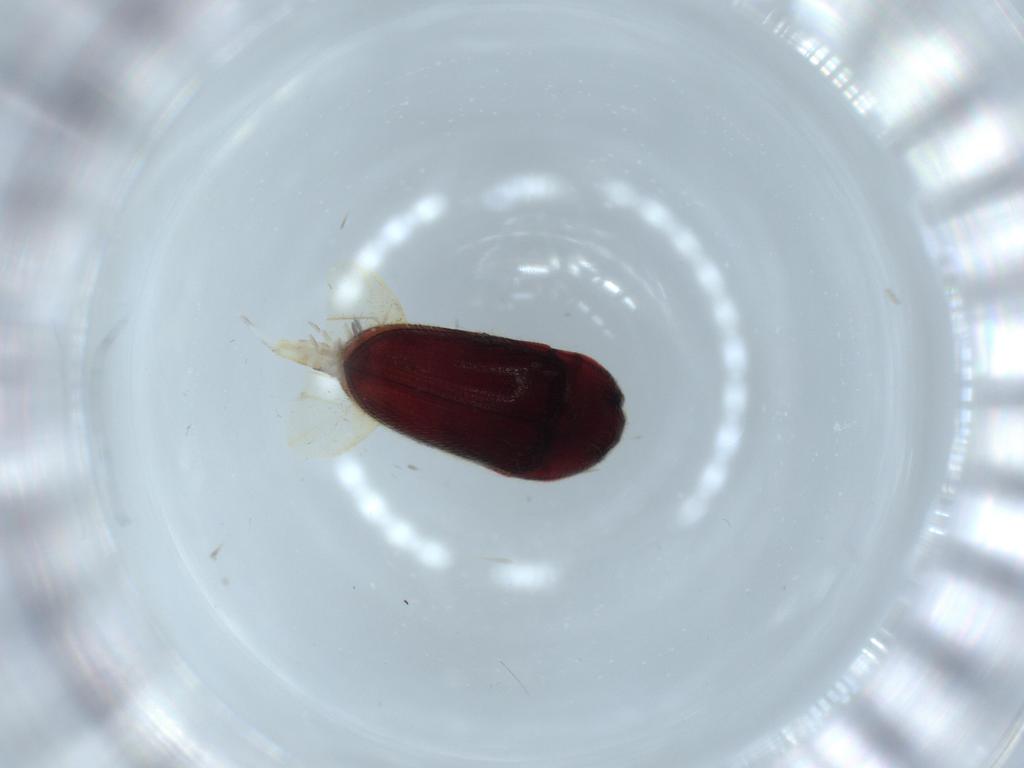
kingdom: Animalia
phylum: Arthropoda
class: Insecta
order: Coleoptera
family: Throscidae
